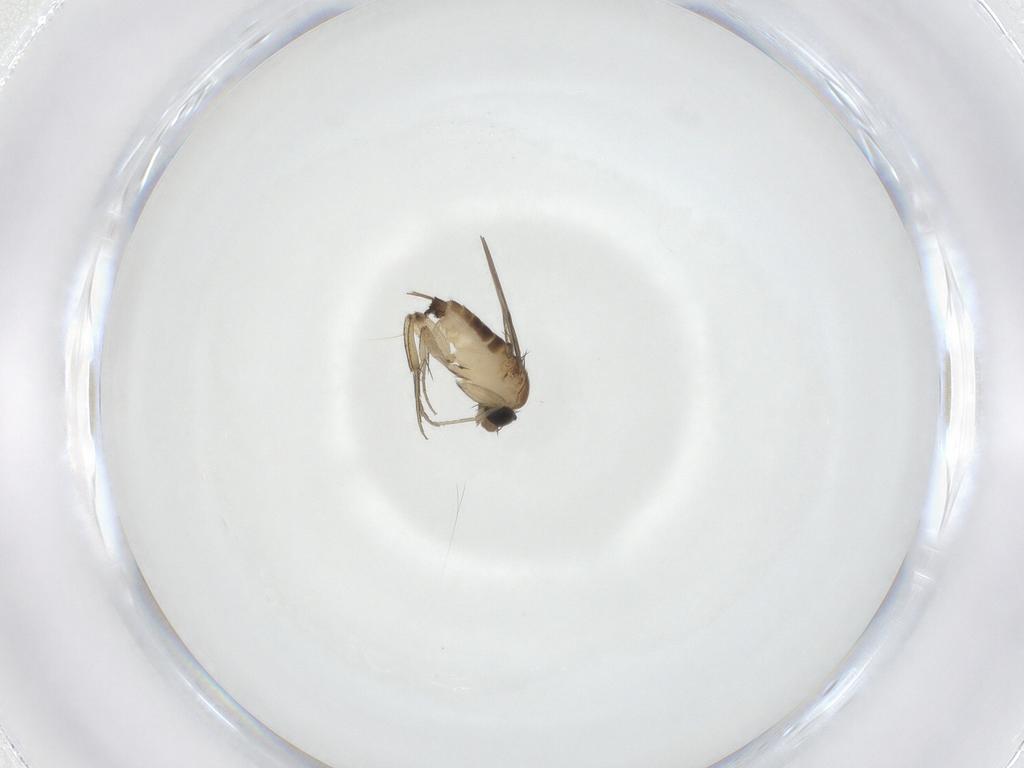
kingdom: Animalia
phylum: Arthropoda
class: Insecta
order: Diptera
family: Phoridae
